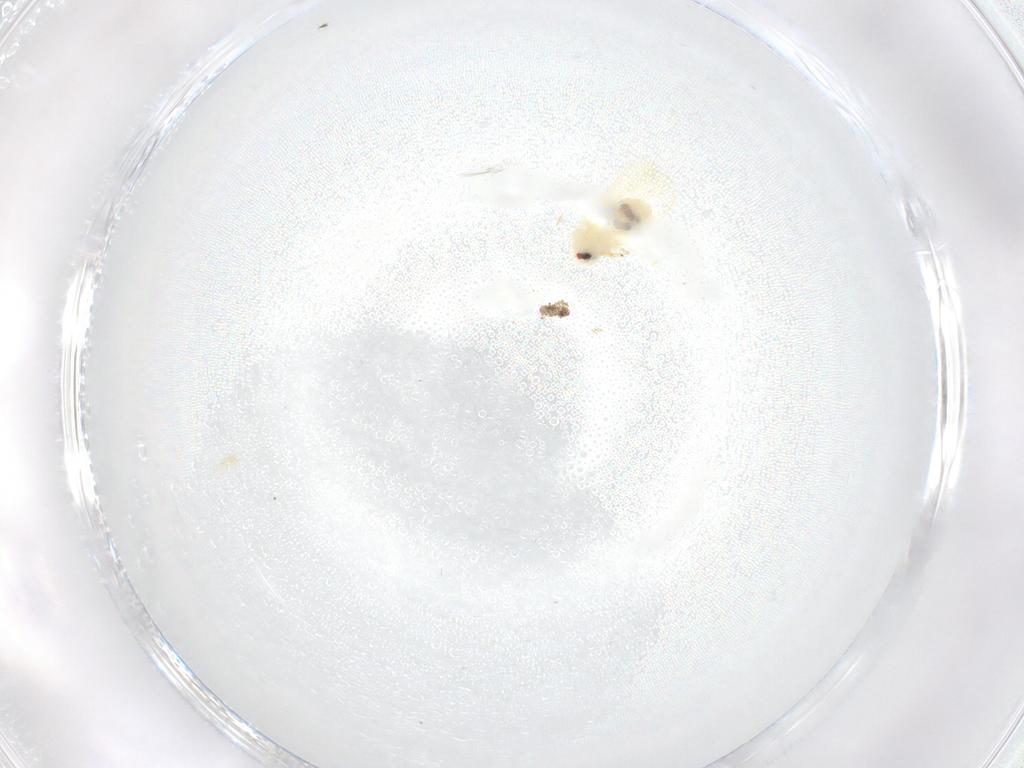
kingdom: Animalia
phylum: Arthropoda
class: Insecta
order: Hemiptera
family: Aleyrodidae
